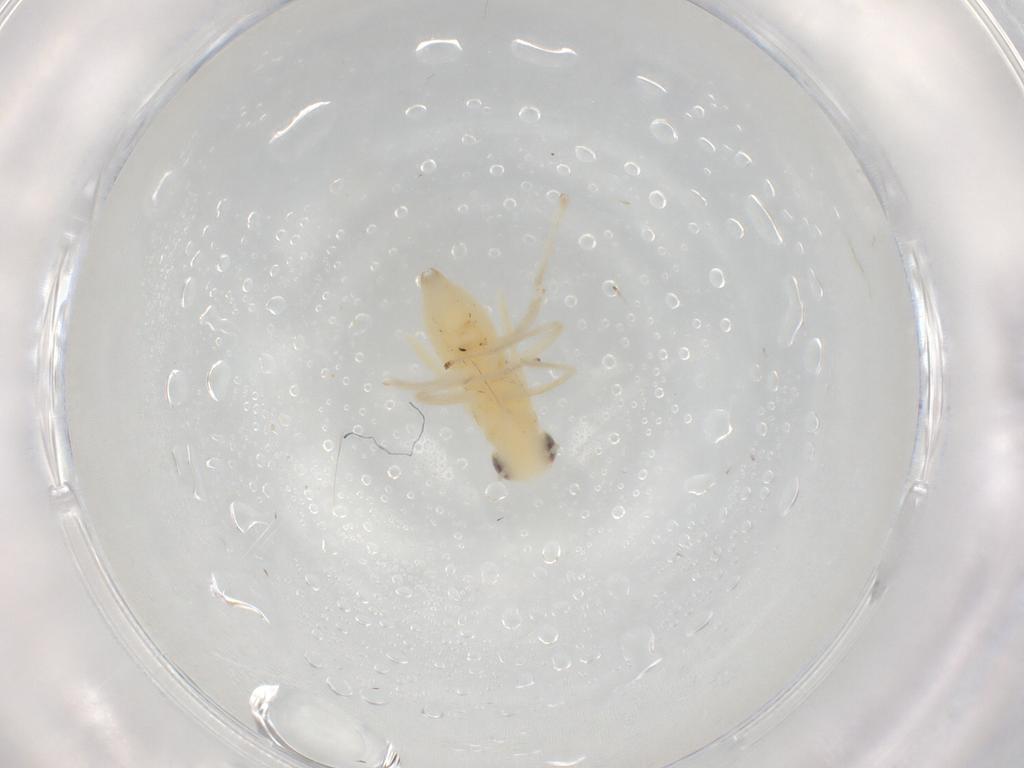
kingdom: Animalia
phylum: Arthropoda
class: Insecta
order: Hemiptera
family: Cicadellidae
